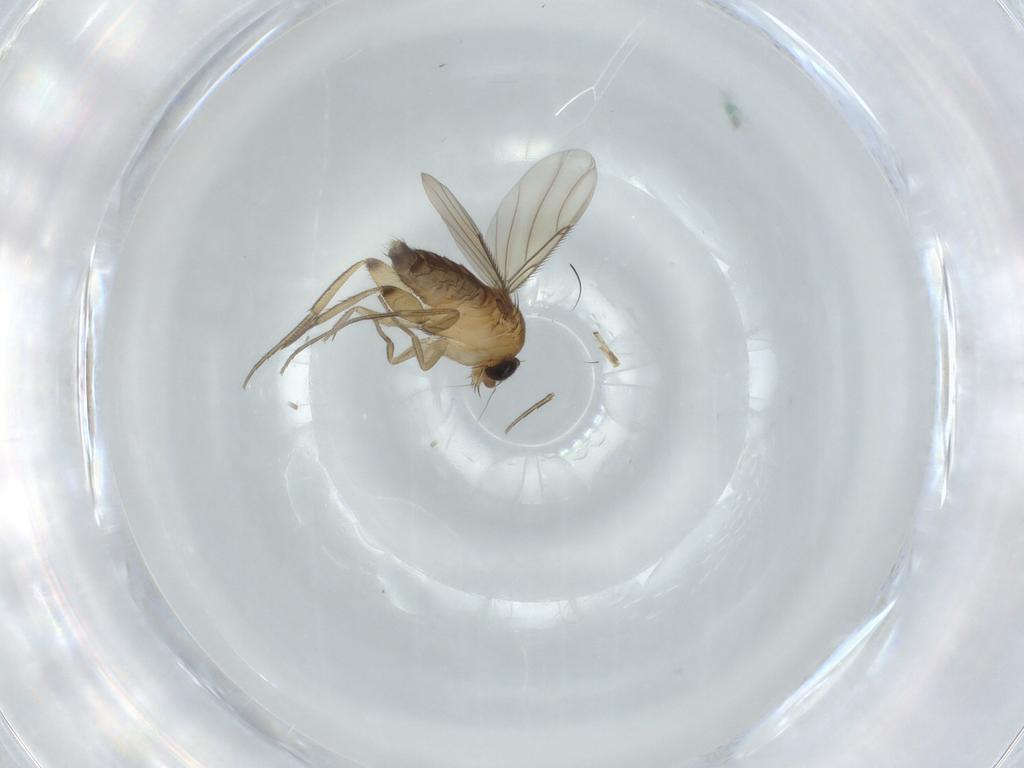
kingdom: Animalia
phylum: Arthropoda
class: Insecta
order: Diptera
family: Phoridae
